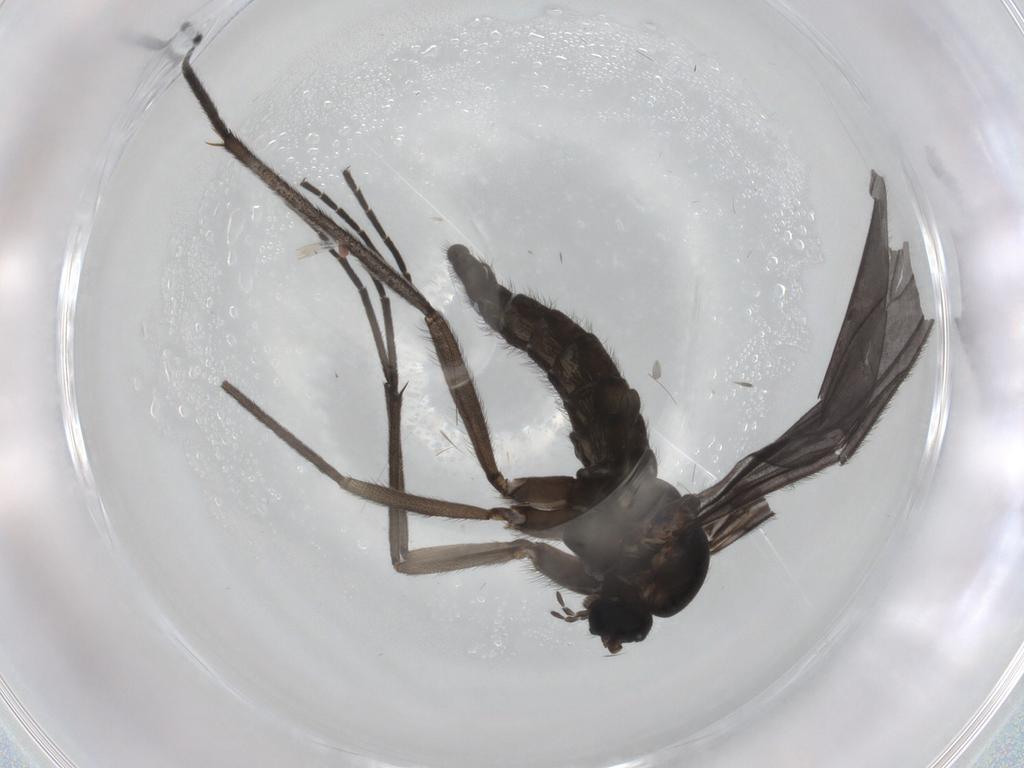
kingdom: Animalia
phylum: Arthropoda
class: Insecta
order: Diptera
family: Sciaridae
